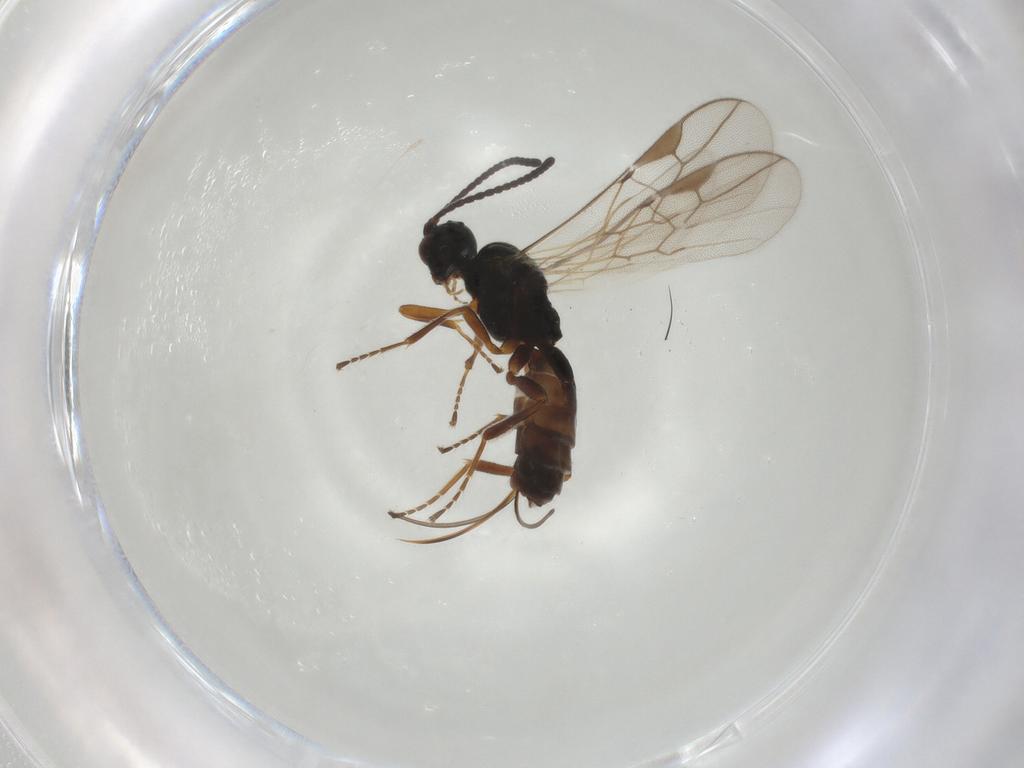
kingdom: Animalia
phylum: Arthropoda
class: Insecta
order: Hymenoptera
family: Braconidae
